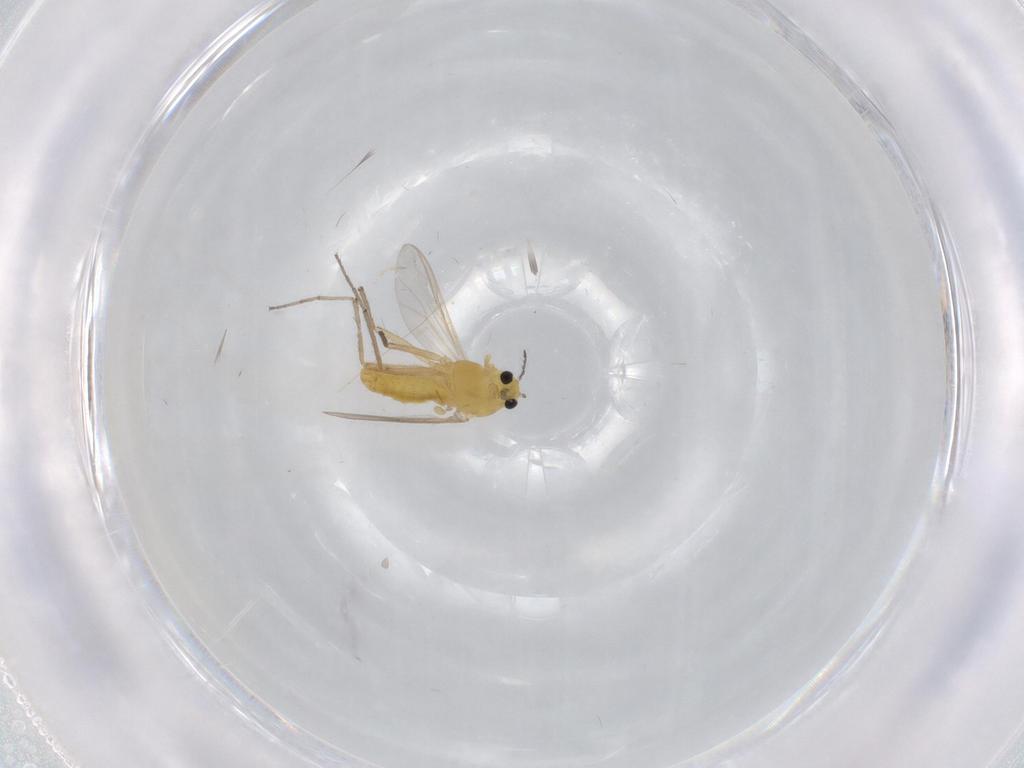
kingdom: Animalia
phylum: Arthropoda
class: Insecta
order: Diptera
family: Chironomidae
